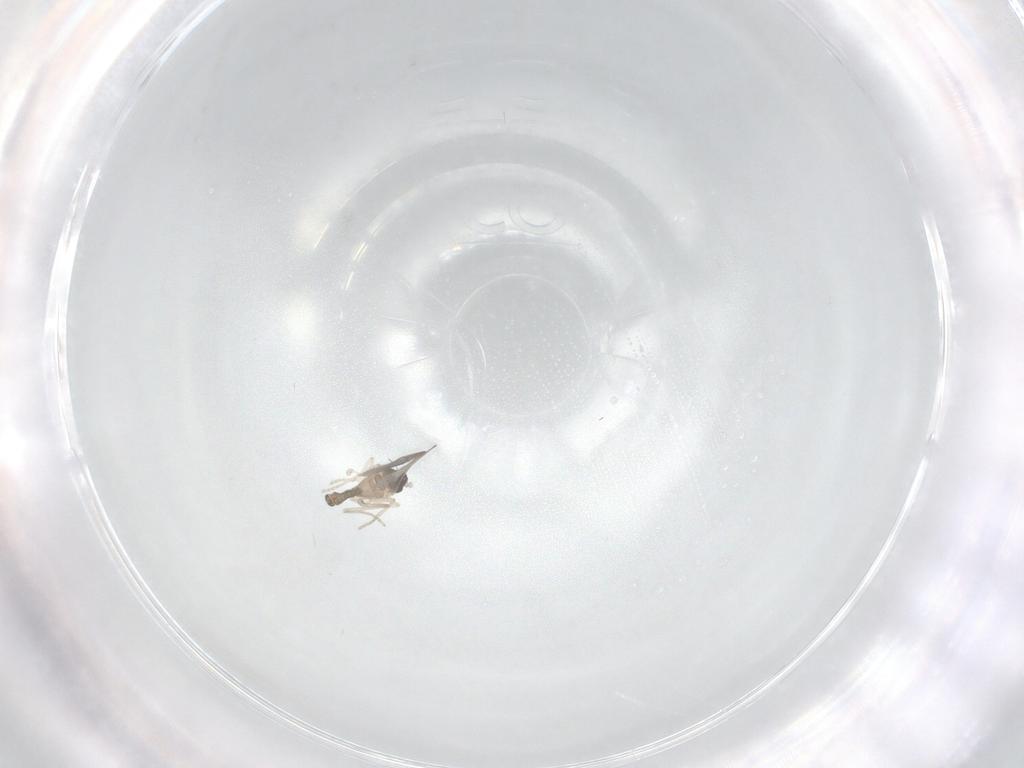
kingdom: Animalia
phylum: Arthropoda
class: Insecta
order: Diptera
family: Cecidomyiidae
